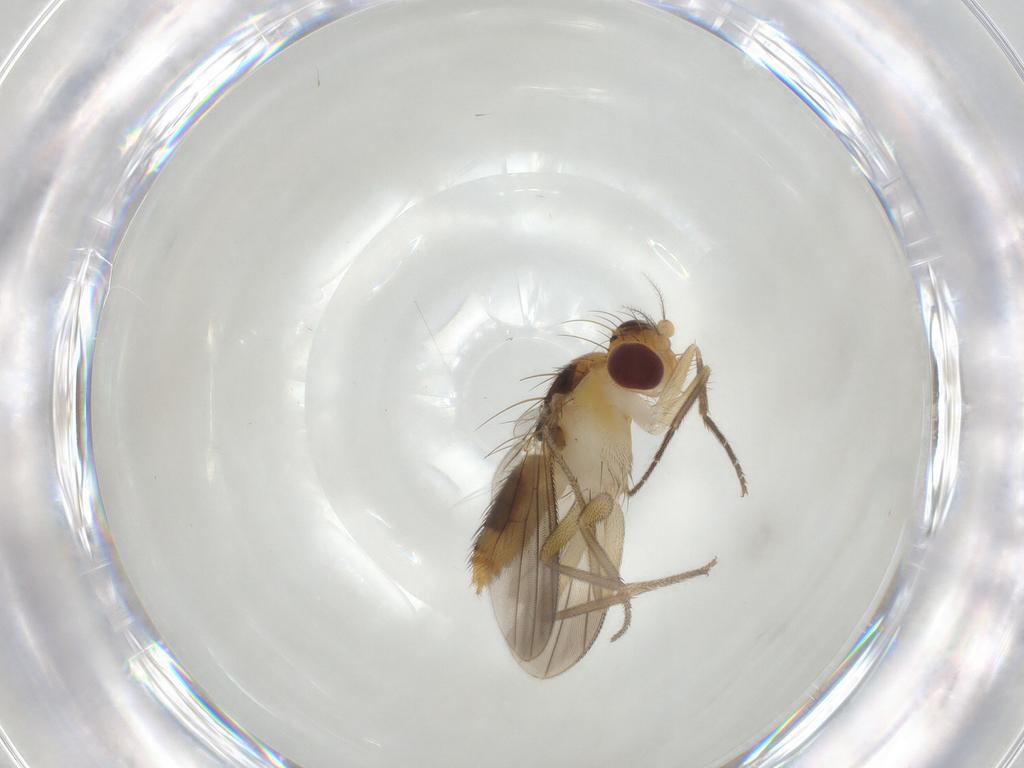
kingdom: Animalia
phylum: Arthropoda
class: Insecta
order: Diptera
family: Clusiidae
